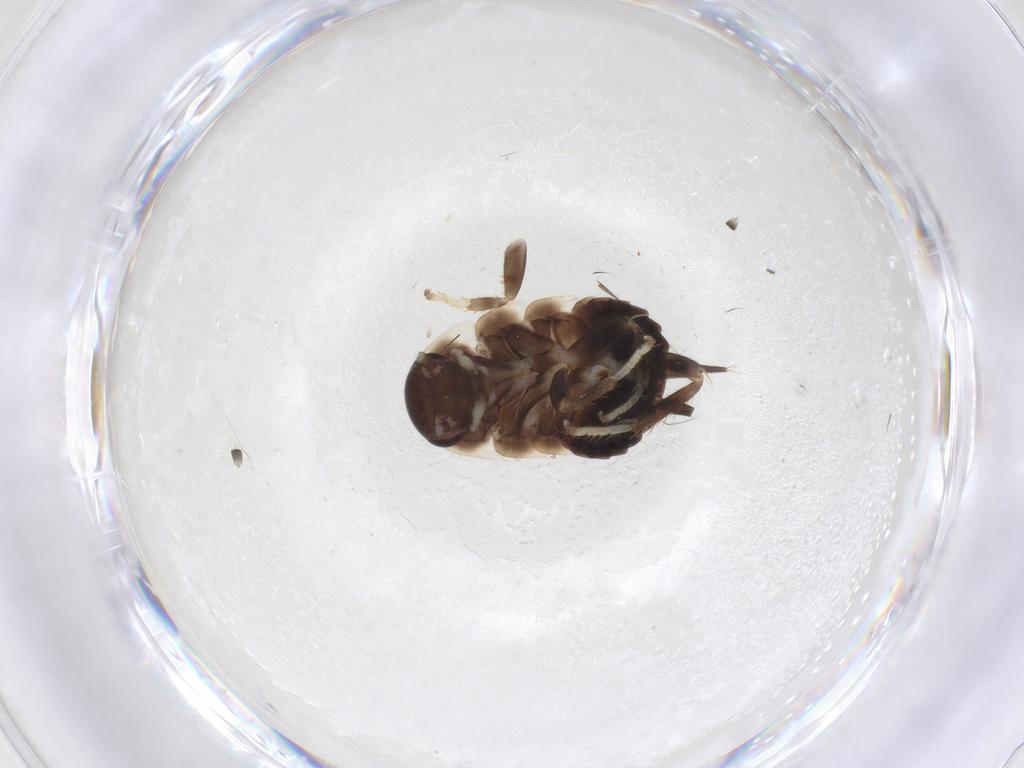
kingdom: Animalia
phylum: Arthropoda
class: Insecta
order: Blattodea
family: Blaberidae
